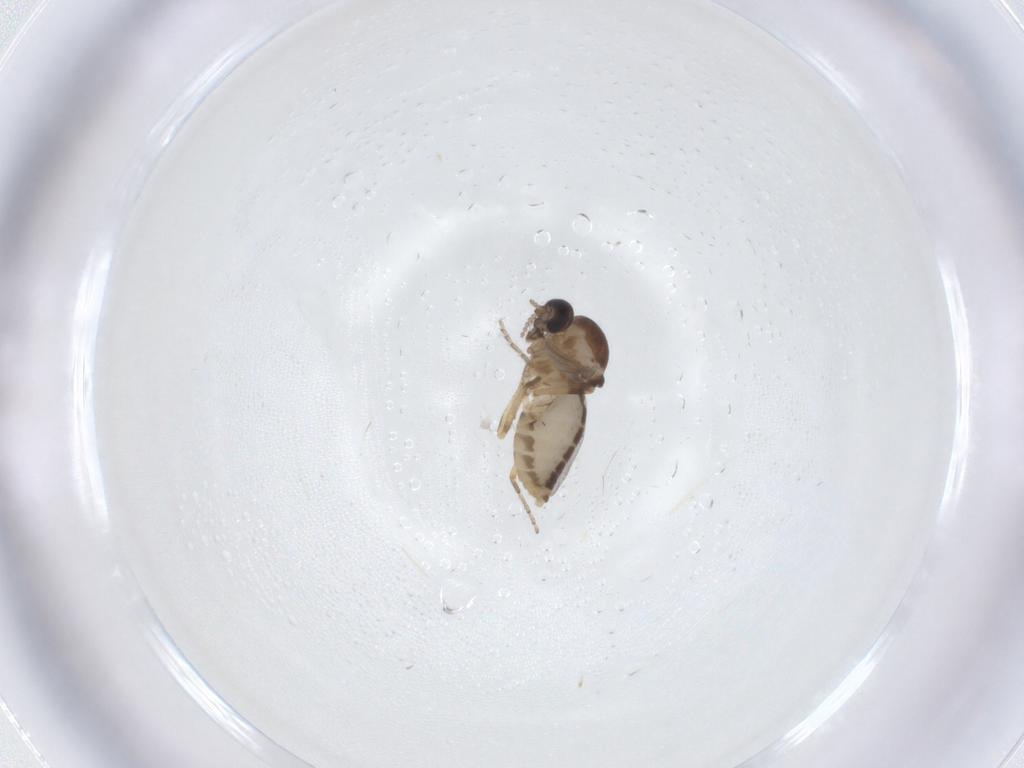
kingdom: Animalia
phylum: Arthropoda
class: Insecta
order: Diptera
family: Ceratopogonidae
